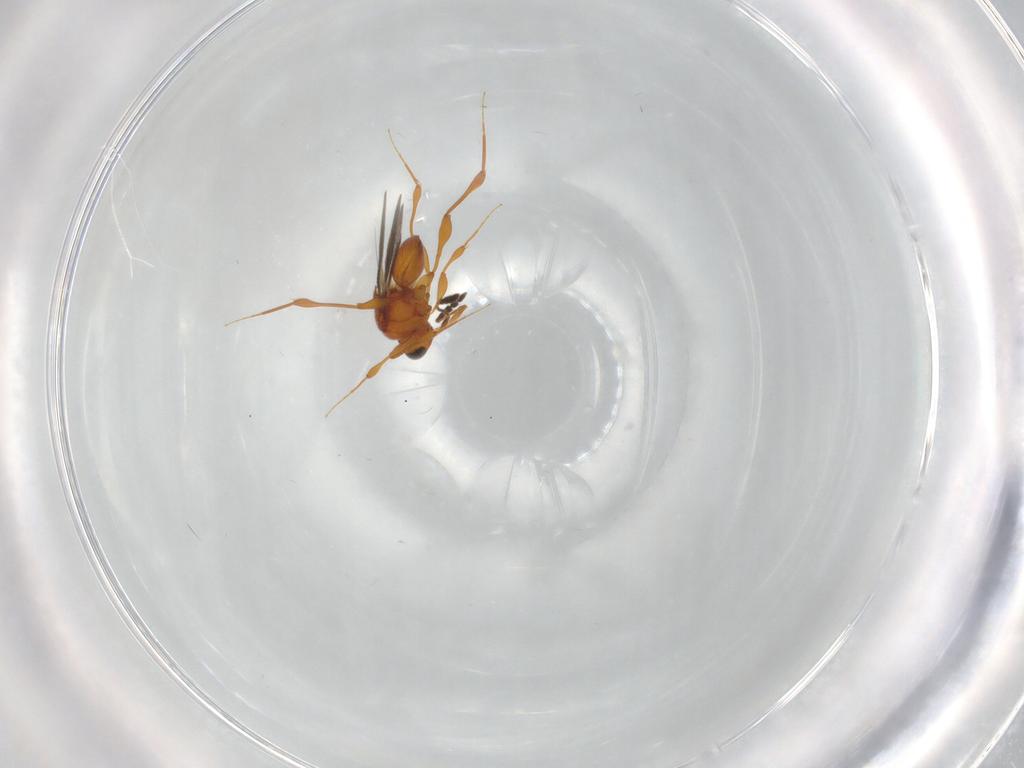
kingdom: Animalia
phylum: Arthropoda
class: Insecta
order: Hymenoptera
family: Platygastridae
